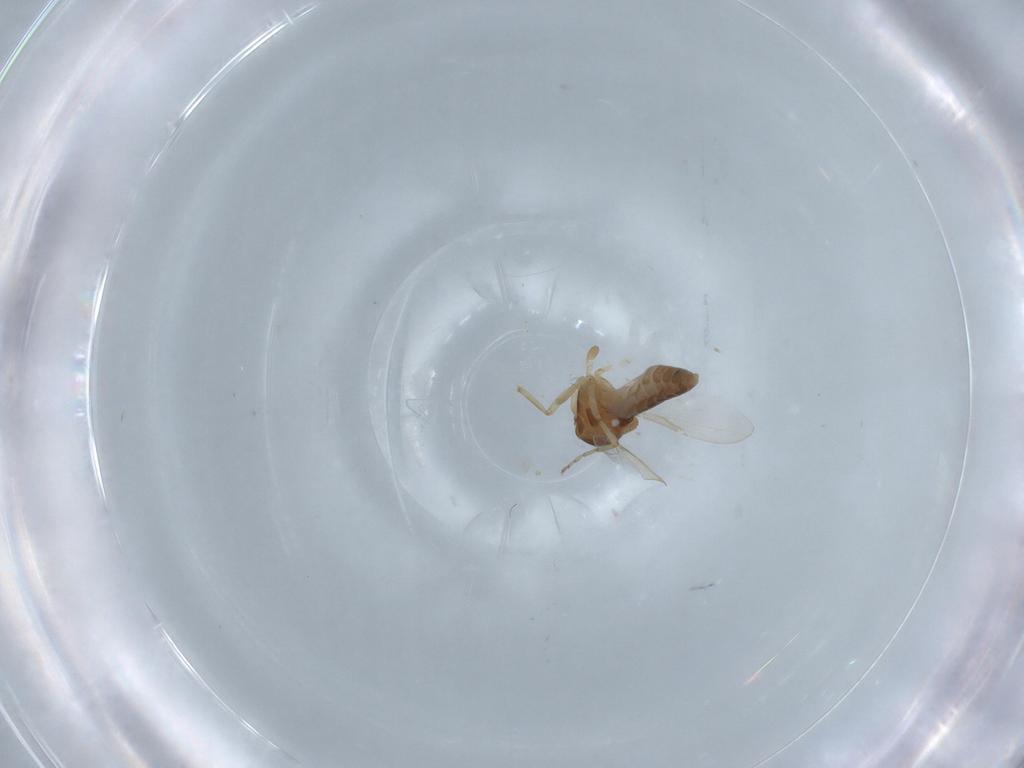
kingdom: Animalia
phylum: Arthropoda
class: Insecta
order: Diptera
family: Ceratopogonidae
